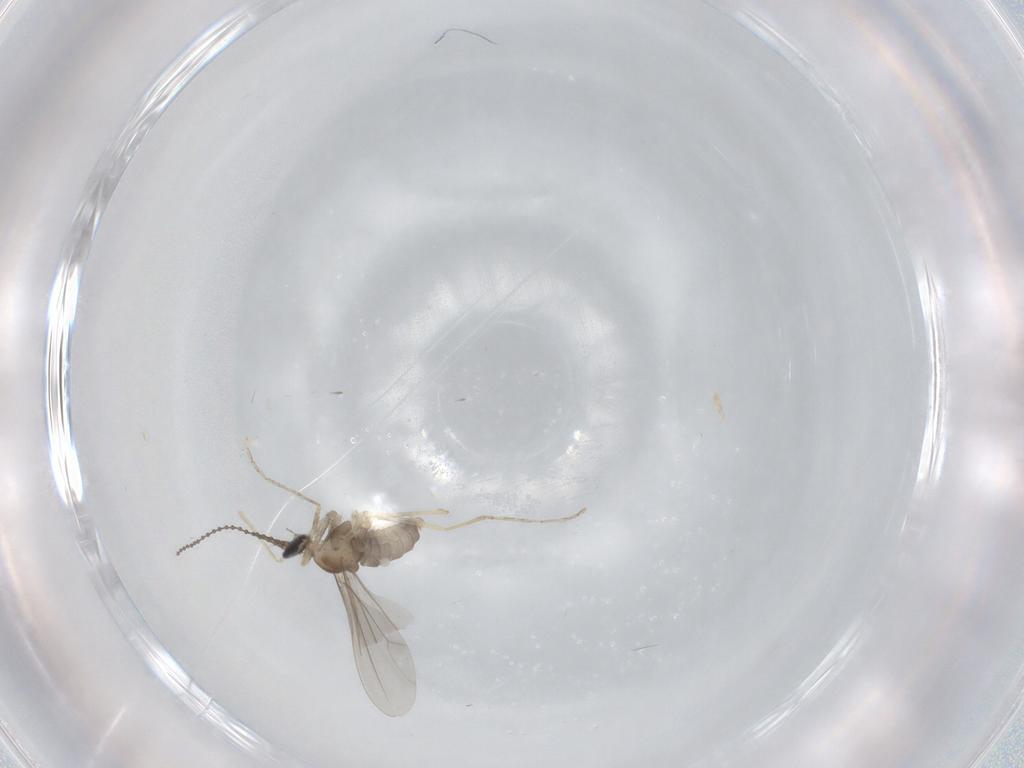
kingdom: Animalia
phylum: Arthropoda
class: Insecta
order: Diptera
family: Cecidomyiidae
